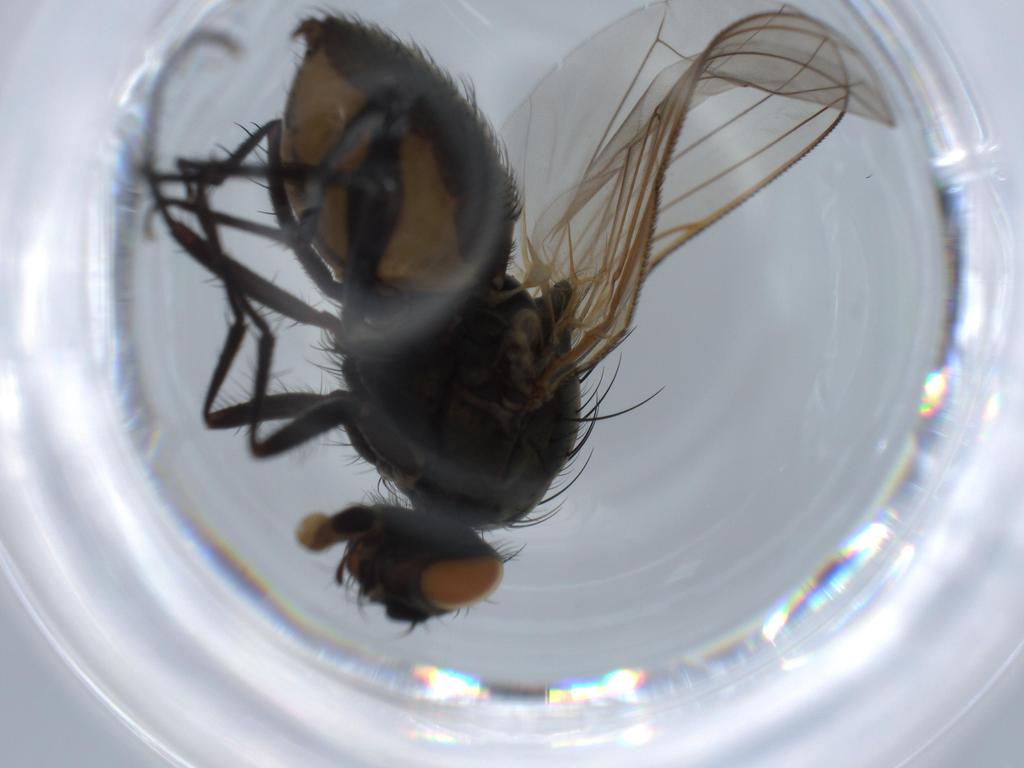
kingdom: Animalia
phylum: Arthropoda
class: Insecta
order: Diptera
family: Anthomyiidae
